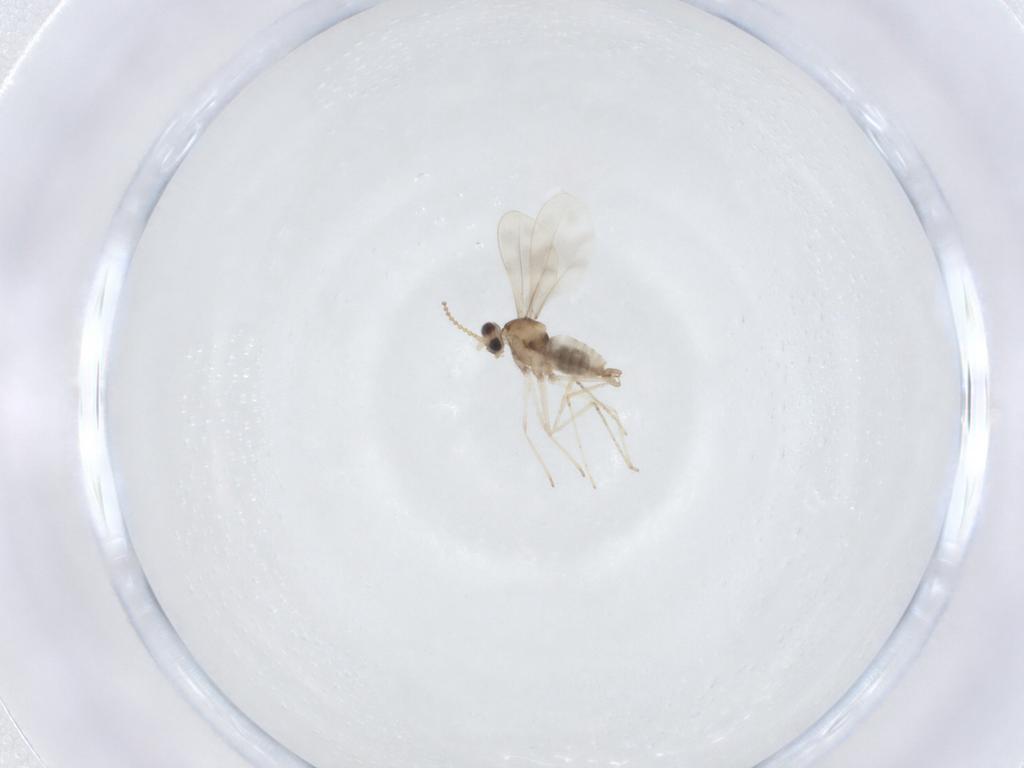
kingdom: Animalia
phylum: Arthropoda
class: Insecta
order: Diptera
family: Cecidomyiidae
